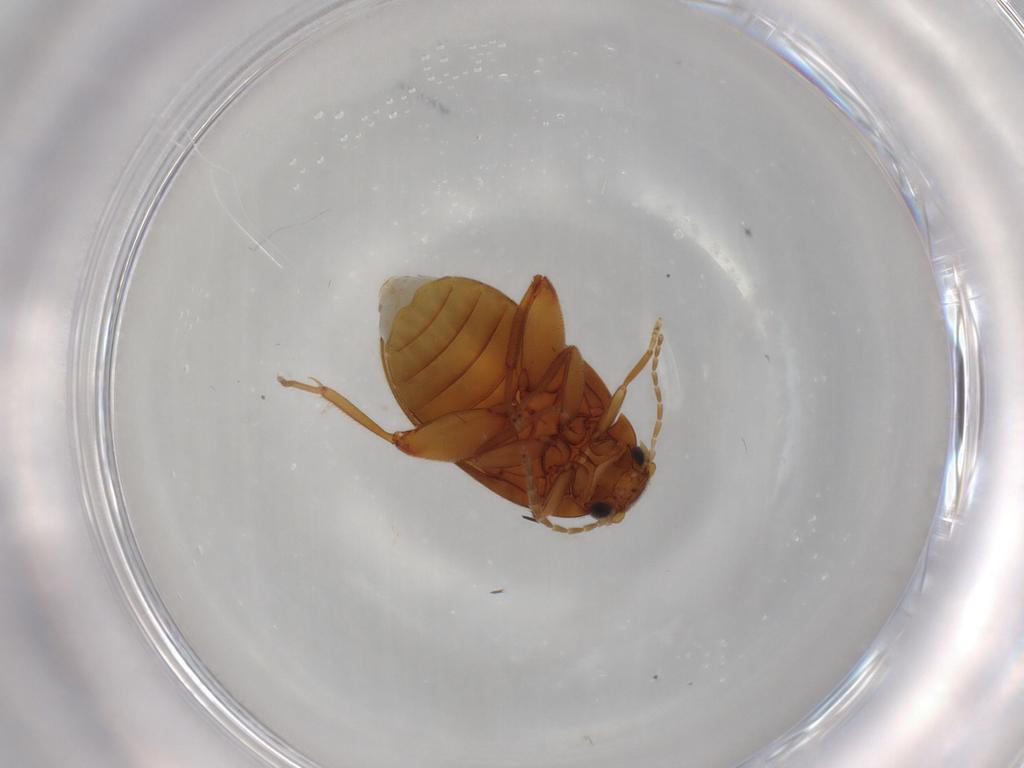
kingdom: Animalia
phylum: Arthropoda
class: Insecta
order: Coleoptera
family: Scirtidae
